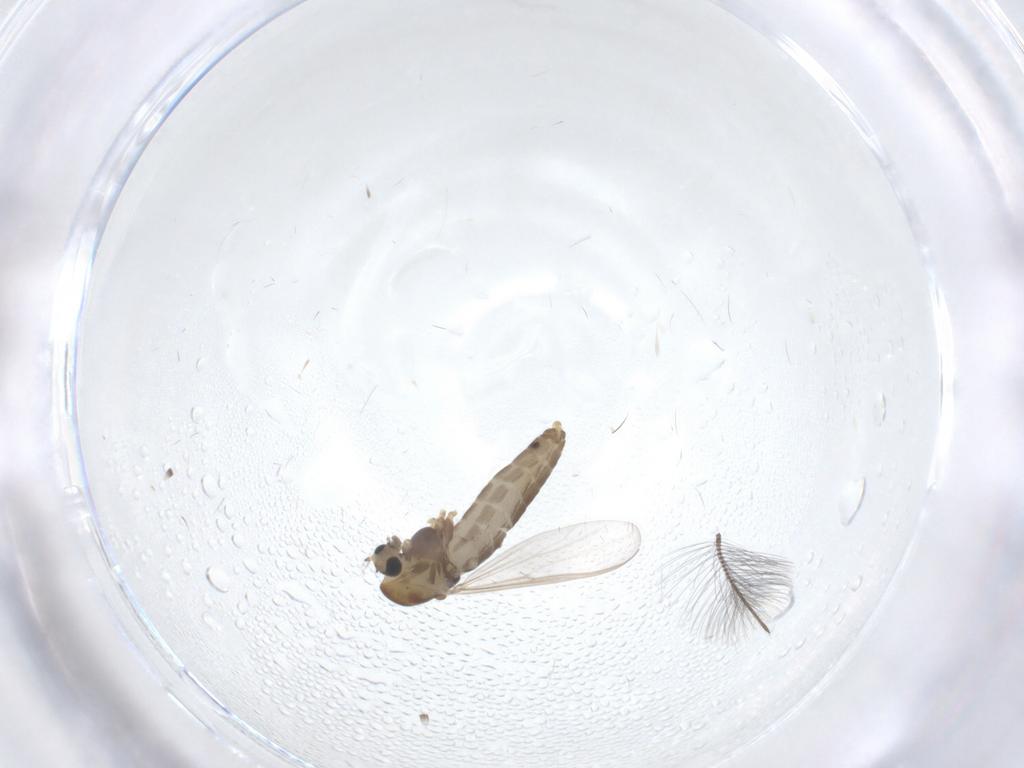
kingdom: Animalia
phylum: Arthropoda
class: Insecta
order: Diptera
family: Chironomidae
